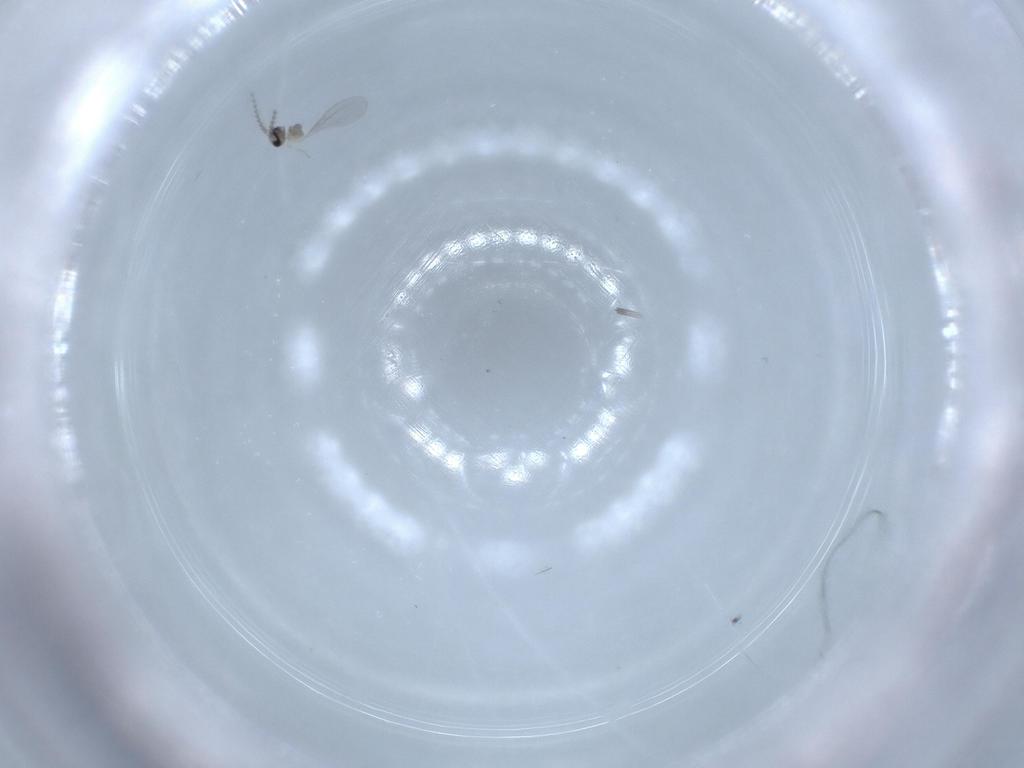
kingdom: Animalia
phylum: Arthropoda
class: Insecta
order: Diptera
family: Cecidomyiidae
